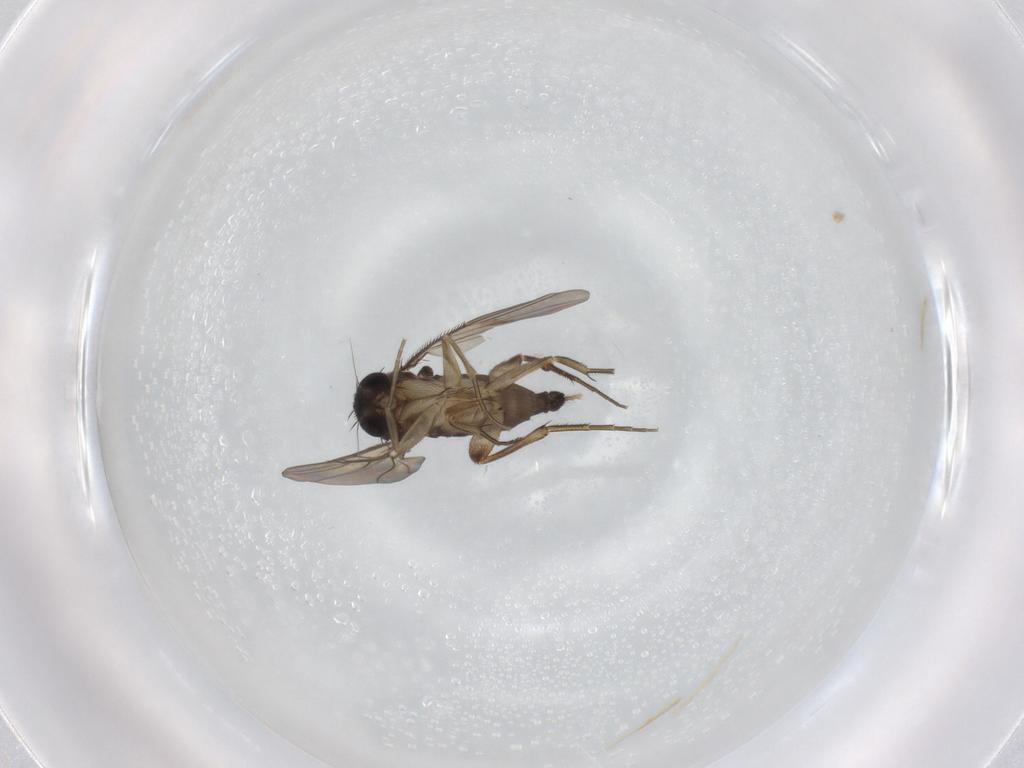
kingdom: Animalia
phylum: Arthropoda
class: Insecta
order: Diptera
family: Phoridae
